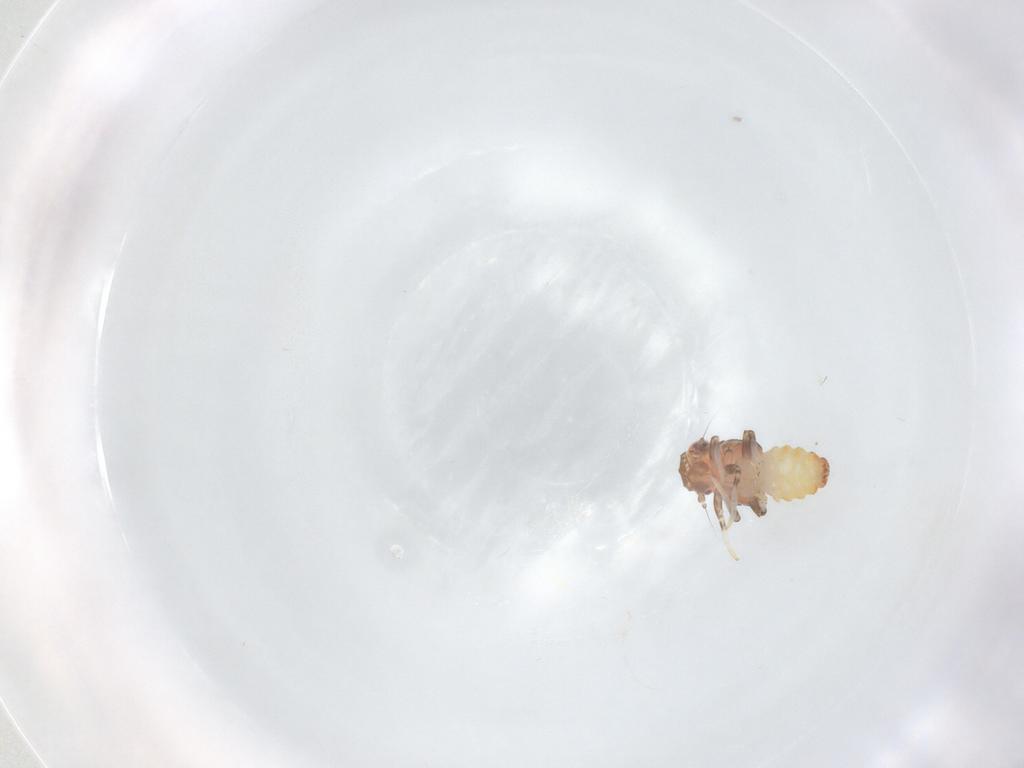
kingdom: Animalia
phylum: Arthropoda
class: Insecta
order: Hemiptera
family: Issidae
